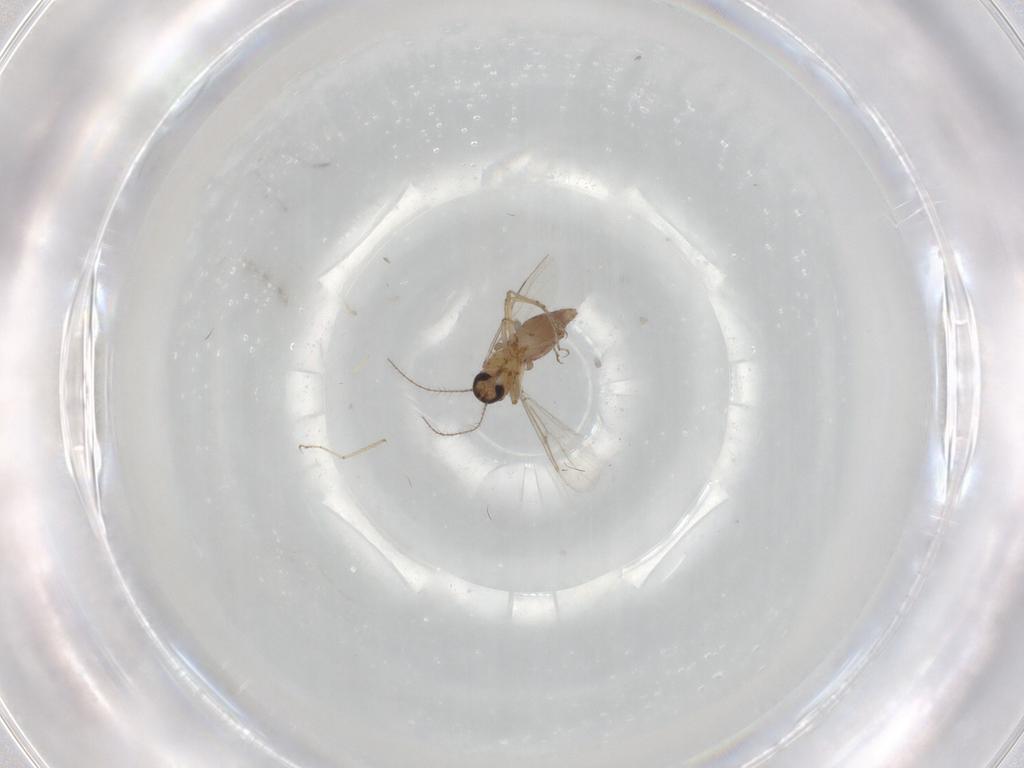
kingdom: Animalia
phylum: Arthropoda
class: Insecta
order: Diptera
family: Ceratopogonidae
